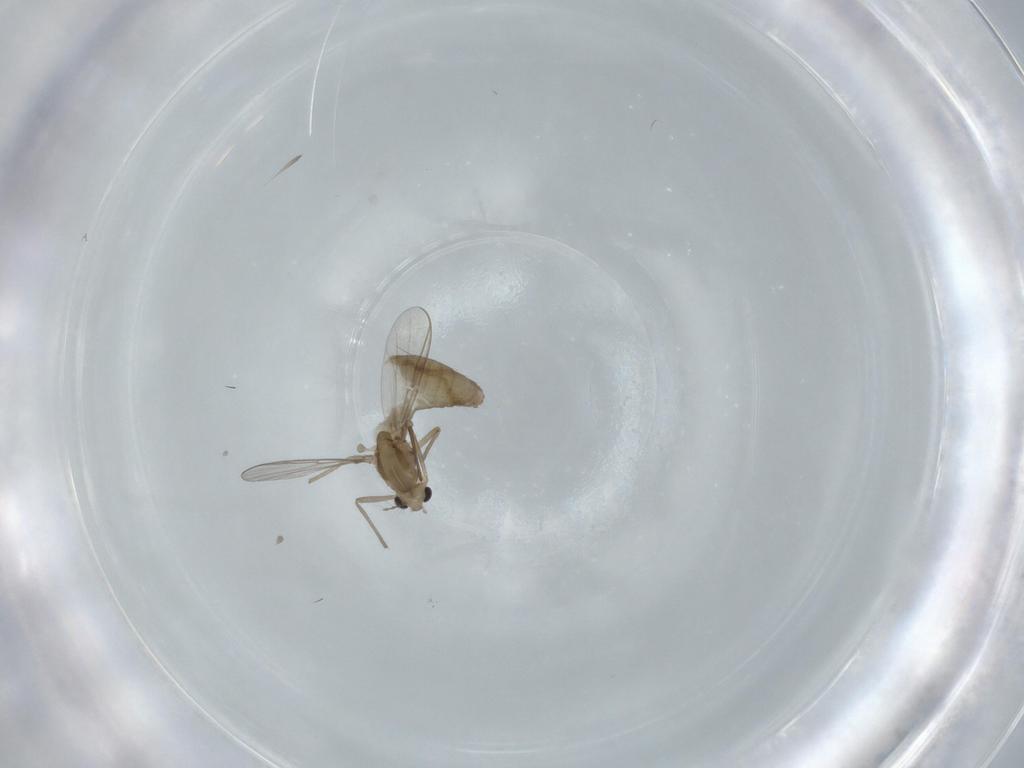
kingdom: Animalia
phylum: Arthropoda
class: Insecta
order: Diptera
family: Chironomidae
